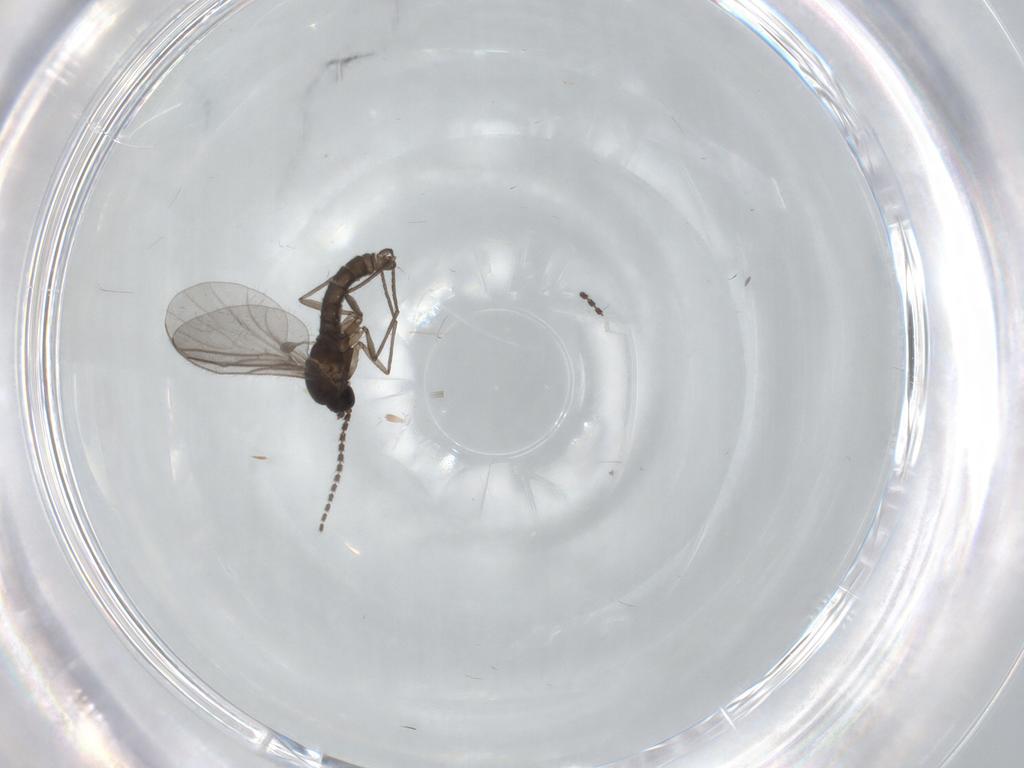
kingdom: Animalia
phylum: Arthropoda
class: Insecta
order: Diptera
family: Sciaridae
